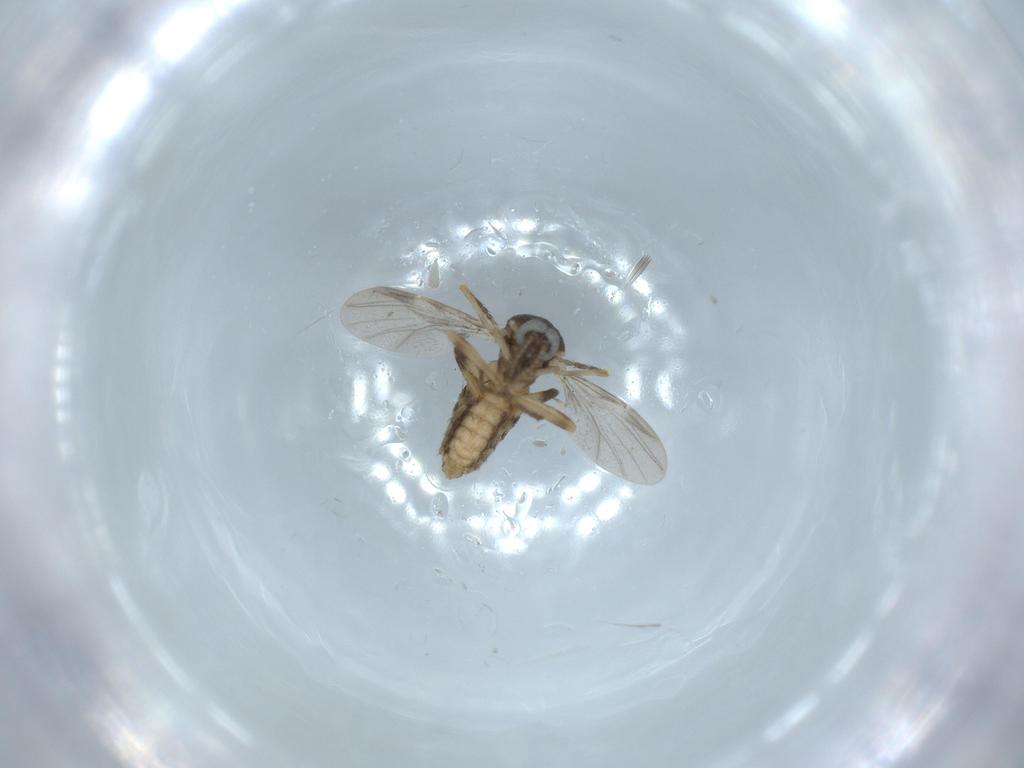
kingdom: Animalia
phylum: Arthropoda
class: Insecta
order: Diptera
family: Ceratopogonidae
